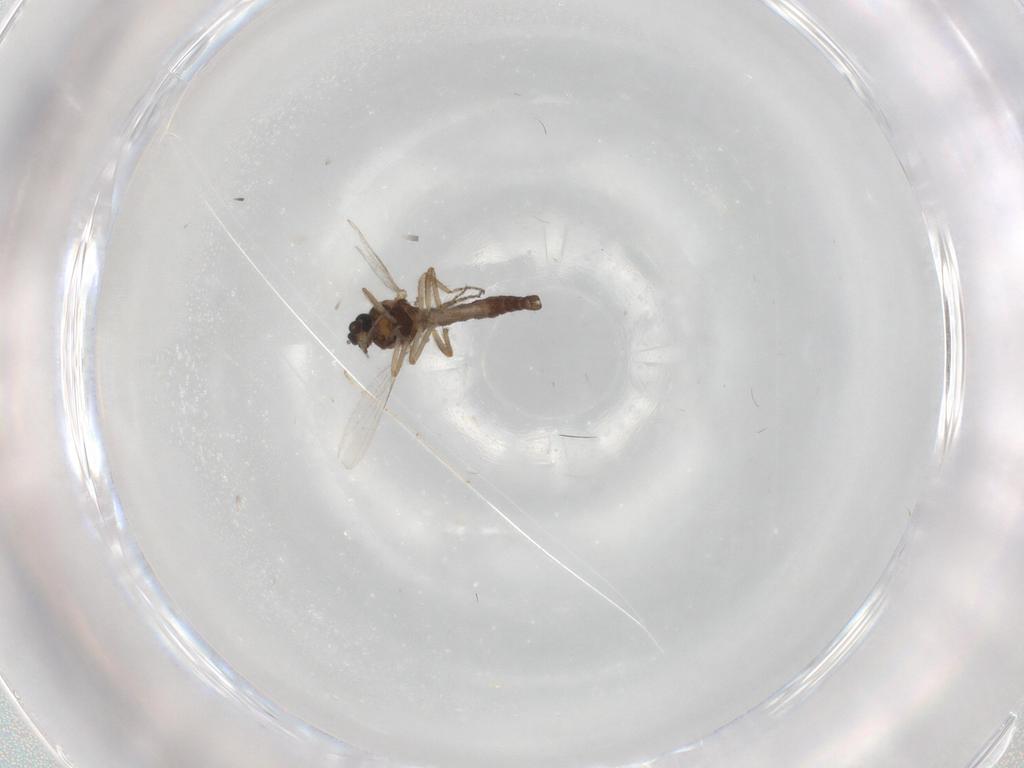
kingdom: Animalia
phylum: Arthropoda
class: Insecta
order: Diptera
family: Ceratopogonidae
